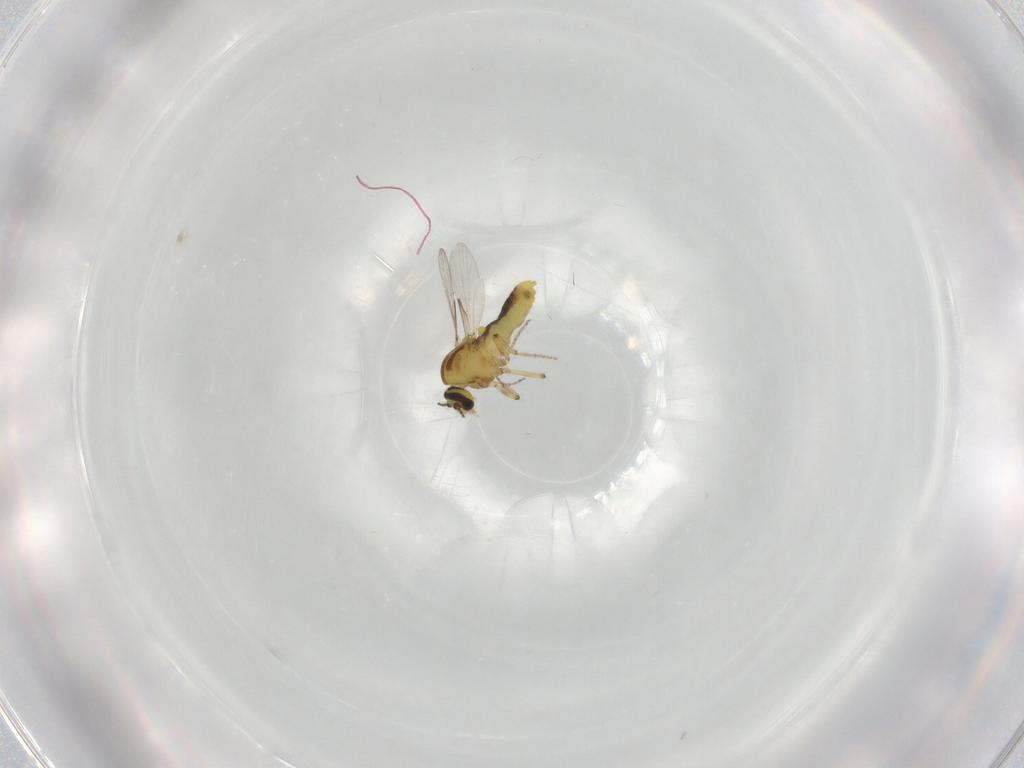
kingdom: Animalia
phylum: Arthropoda
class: Insecta
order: Diptera
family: Ceratopogonidae
